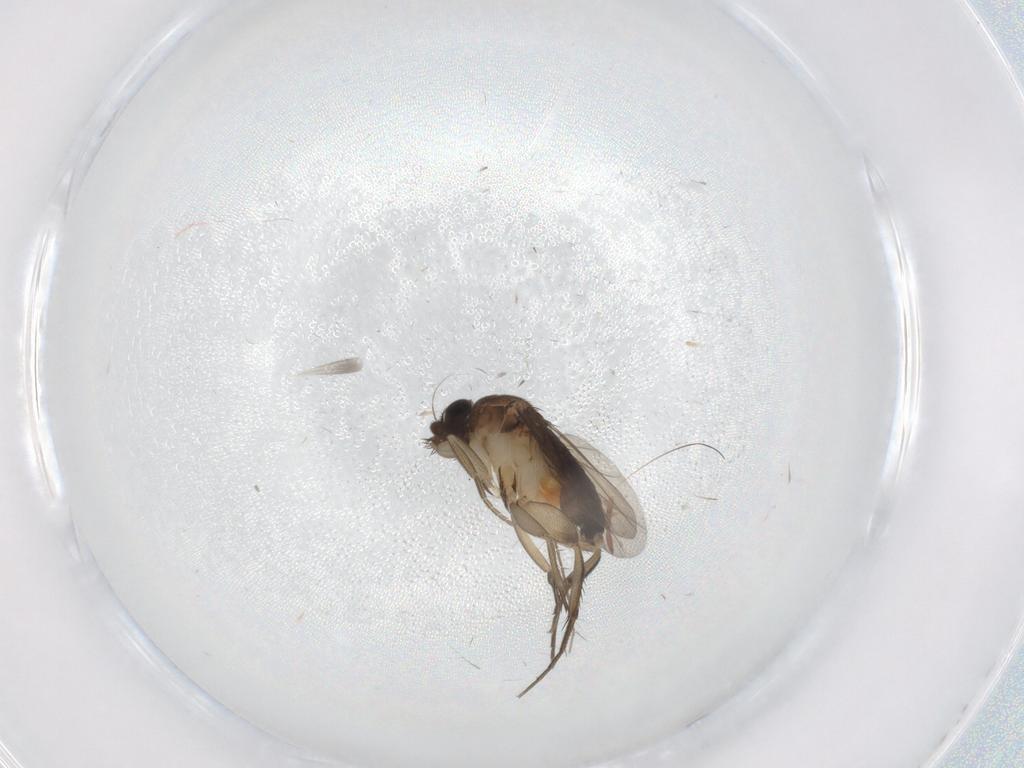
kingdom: Animalia
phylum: Arthropoda
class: Insecta
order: Diptera
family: Phoridae
